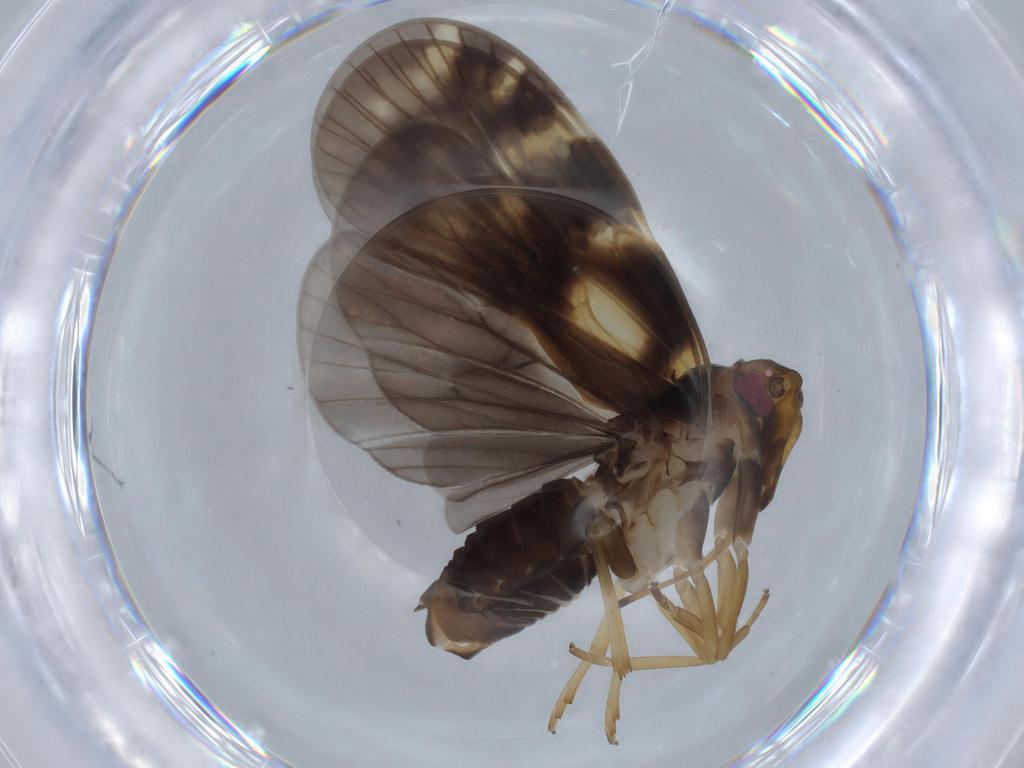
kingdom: Animalia
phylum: Arthropoda
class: Insecta
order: Hemiptera
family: Cixiidae
